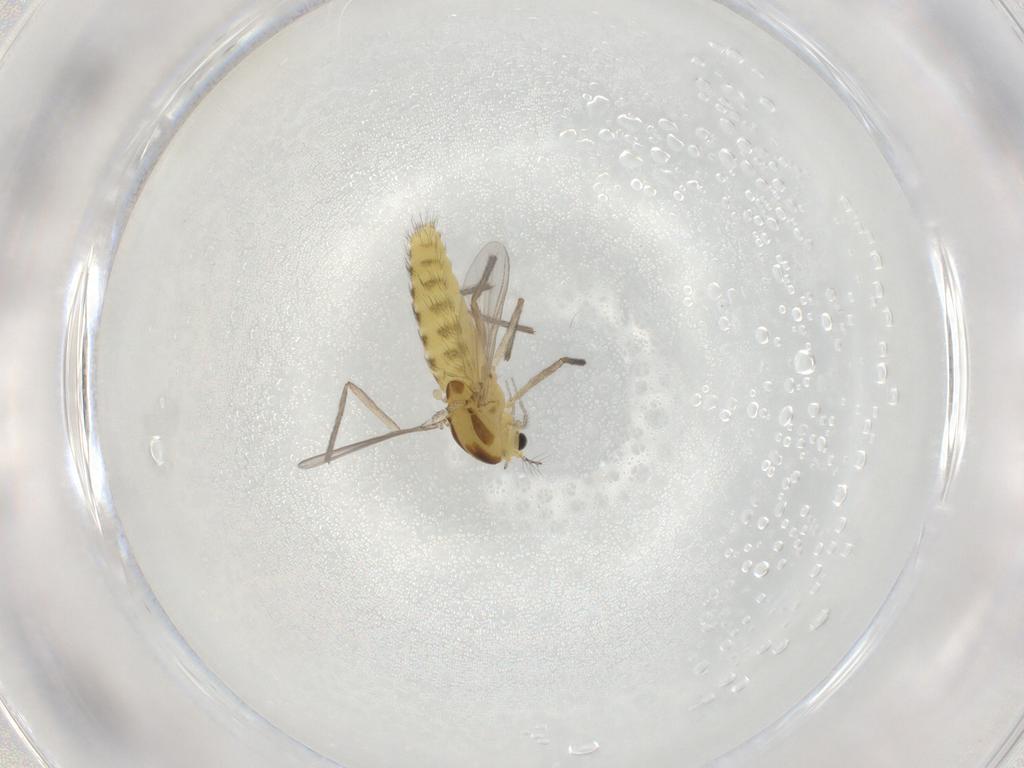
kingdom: Animalia
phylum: Arthropoda
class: Insecta
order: Diptera
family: Chironomidae
